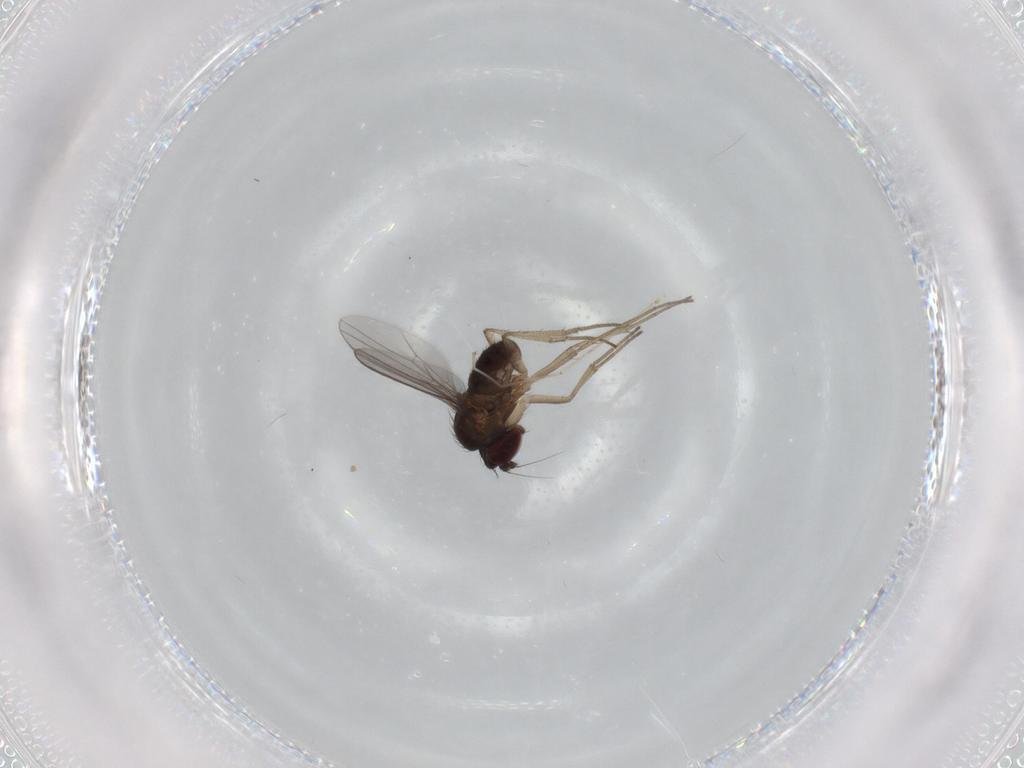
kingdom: Animalia
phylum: Arthropoda
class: Insecta
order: Diptera
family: Dolichopodidae
